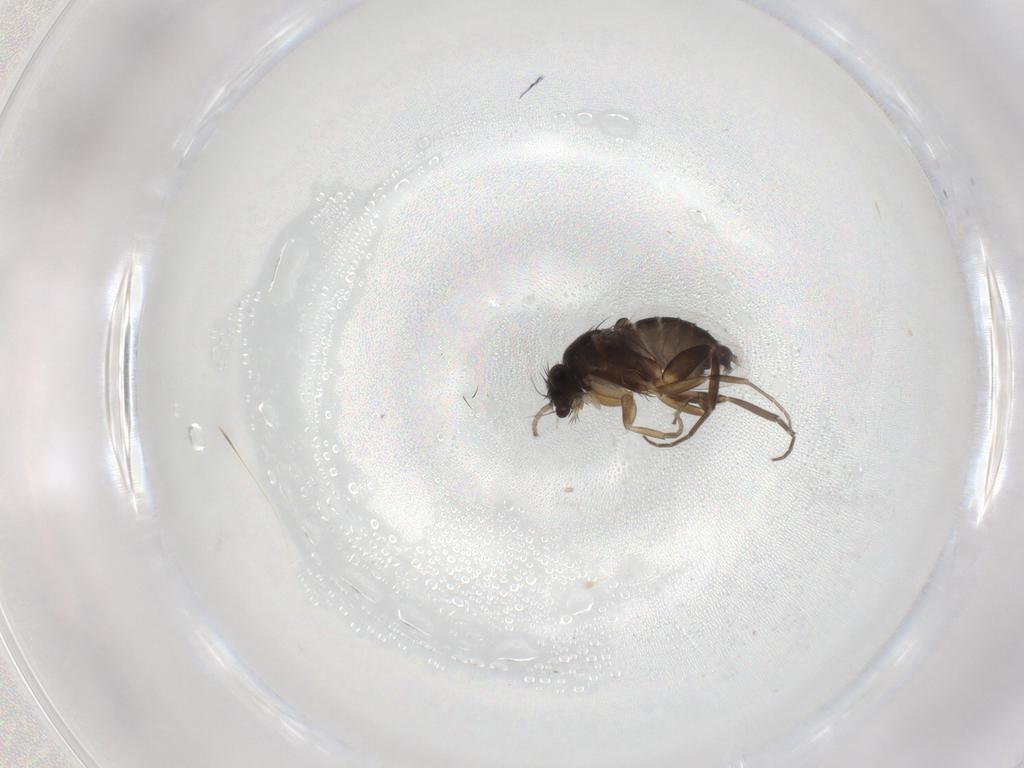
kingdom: Animalia
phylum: Arthropoda
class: Insecta
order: Diptera
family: Phoridae
